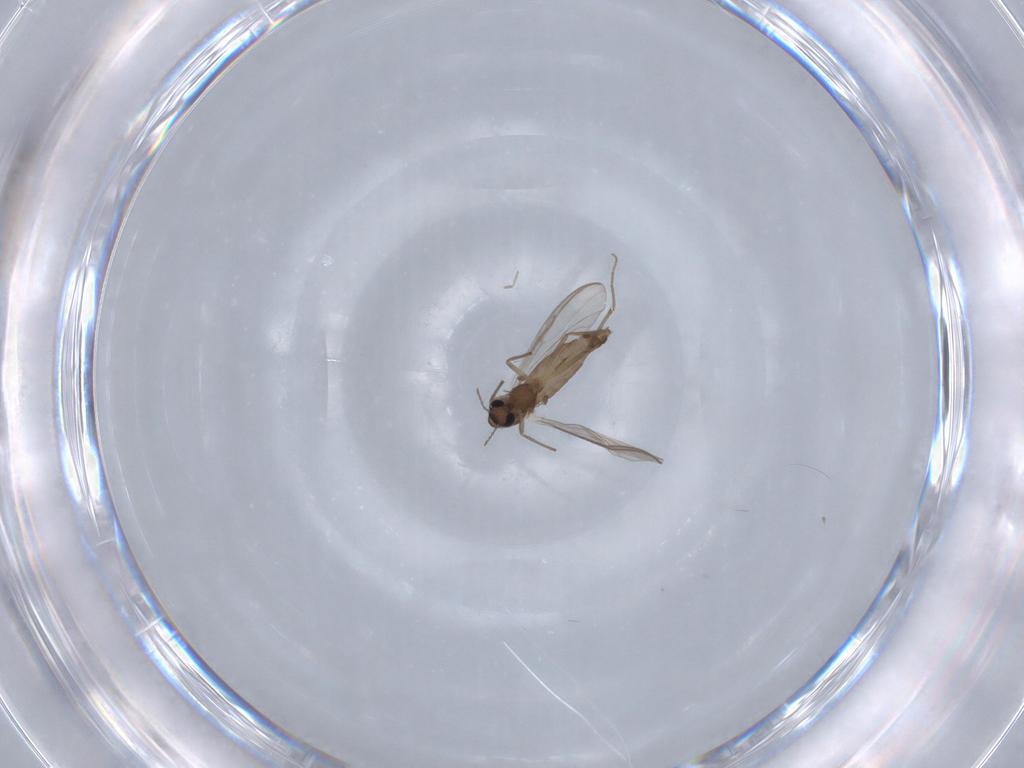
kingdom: Animalia
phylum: Arthropoda
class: Insecta
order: Diptera
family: Chironomidae
